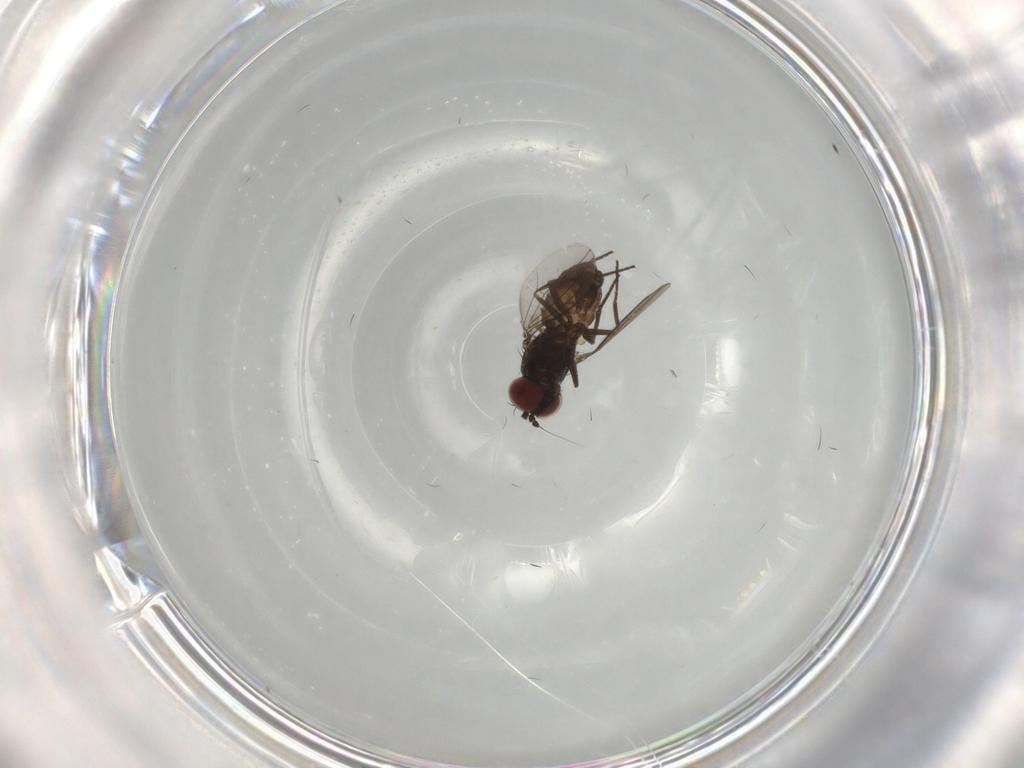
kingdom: Animalia
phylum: Arthropoda
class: Insecta
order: Diptera
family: Dolichopodidae
